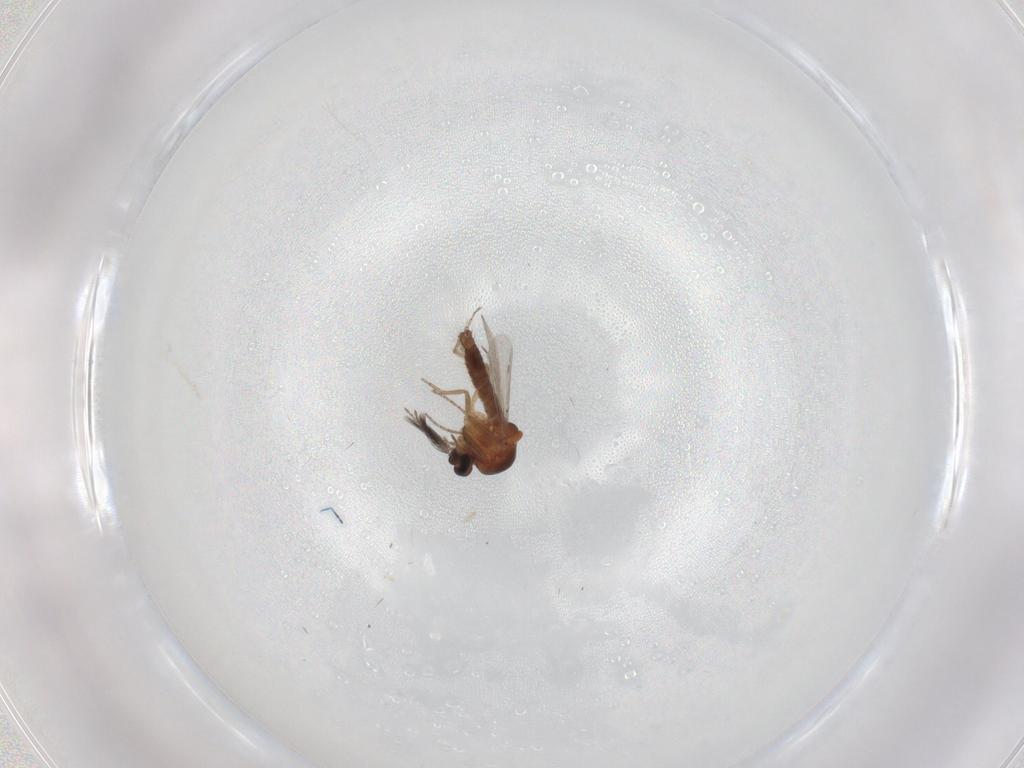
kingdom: Animalia
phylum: Arthropoda
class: Insecta
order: Diptera
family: Ceratopogonidae
